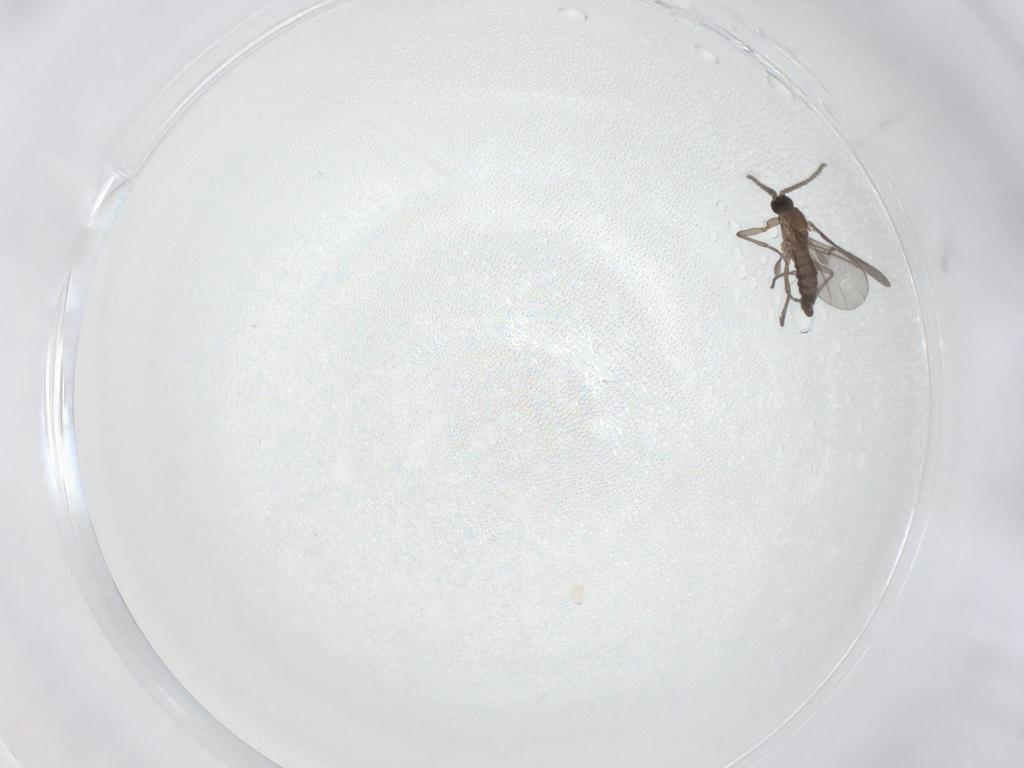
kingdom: Animalia
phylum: Arthropoda
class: Insecta
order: Diptera
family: Sciaridae
